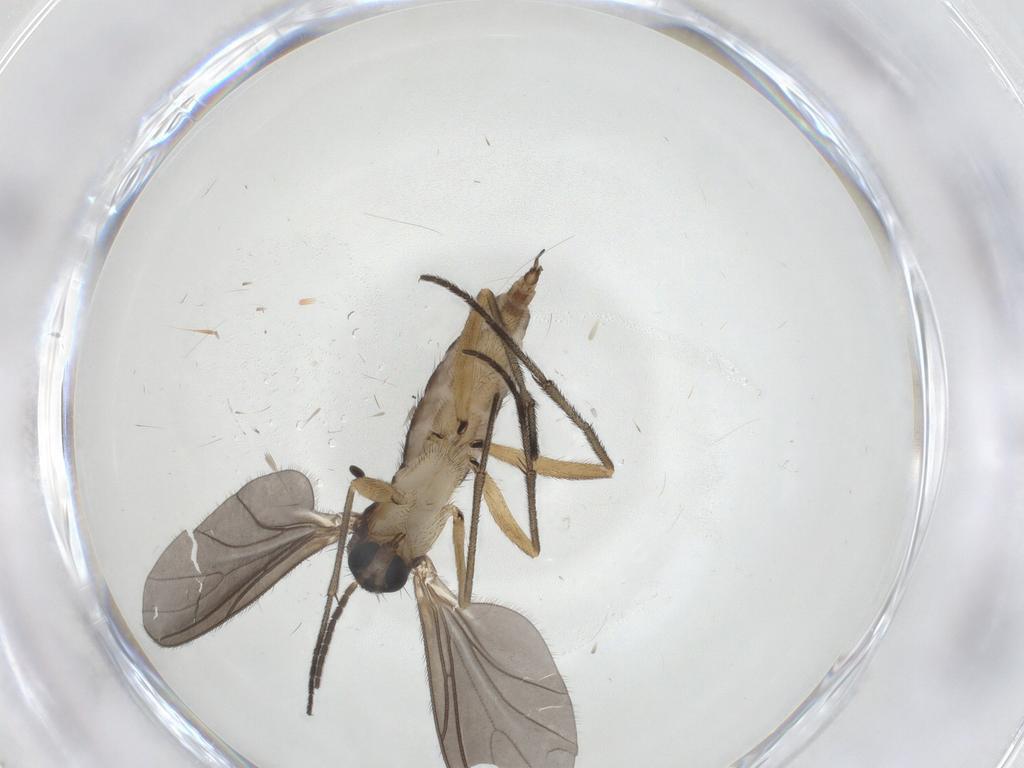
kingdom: Animalia
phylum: Arthropoda
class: Insecta
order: Diptera
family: Sciaridae
